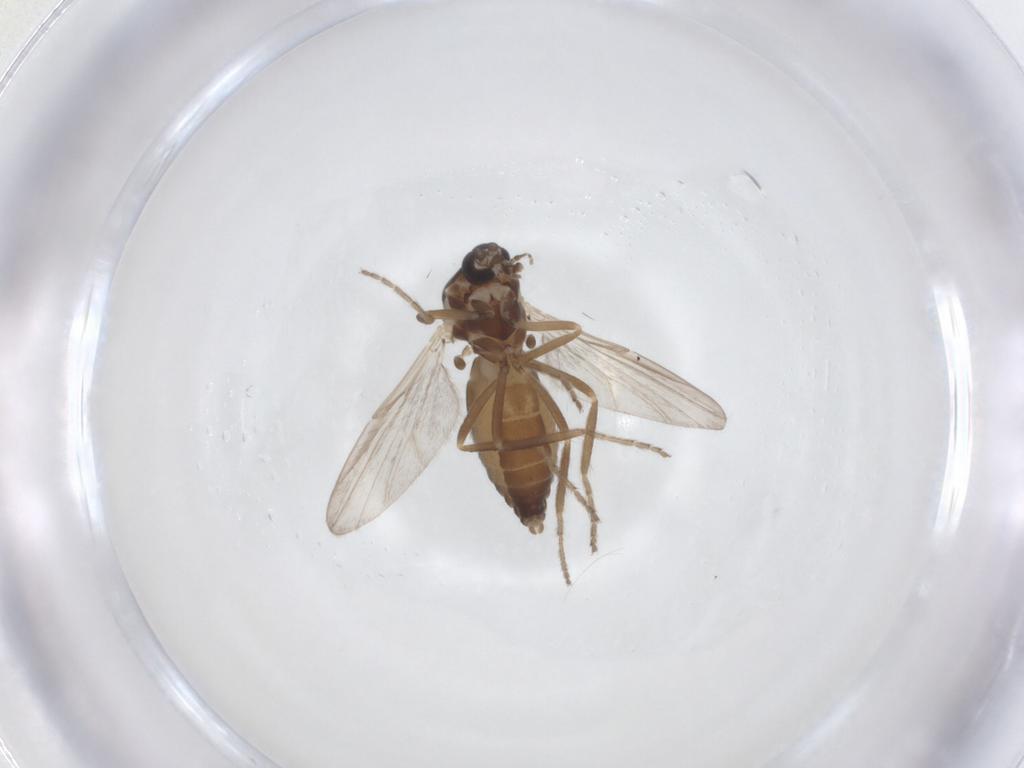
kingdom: Animalia
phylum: Arthropoda
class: Insecta
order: Diptera
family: Ceratopogonidae
